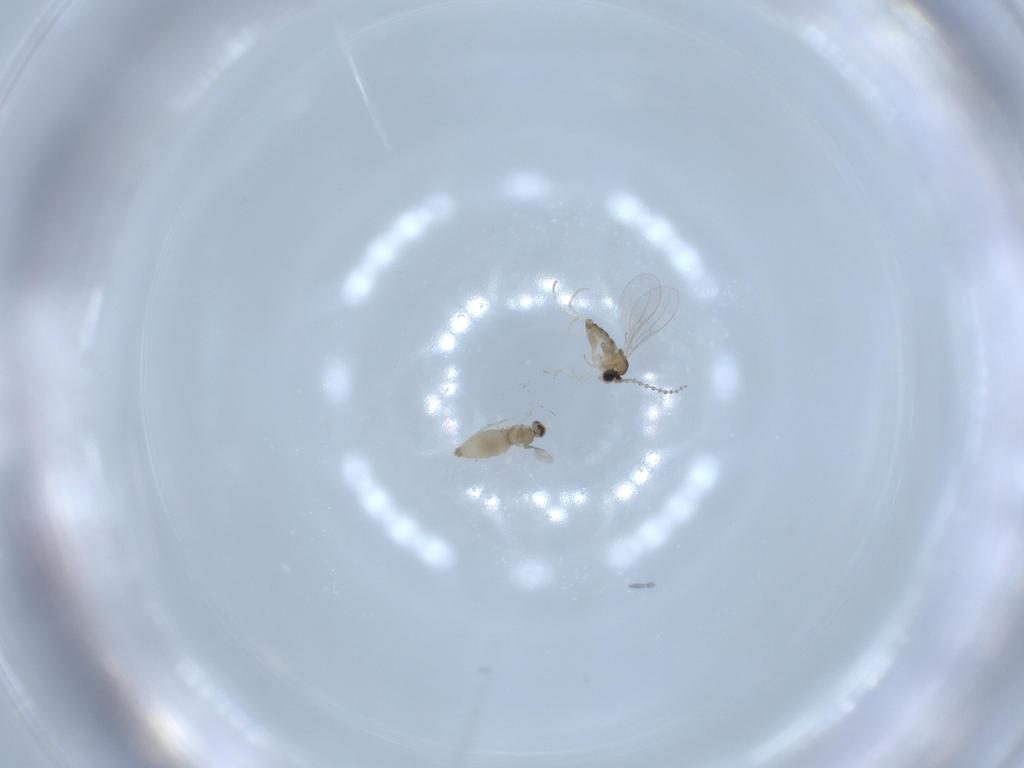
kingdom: Animalia
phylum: Arthropoda
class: Insecta
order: Diptera
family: Cecidomyiidae
